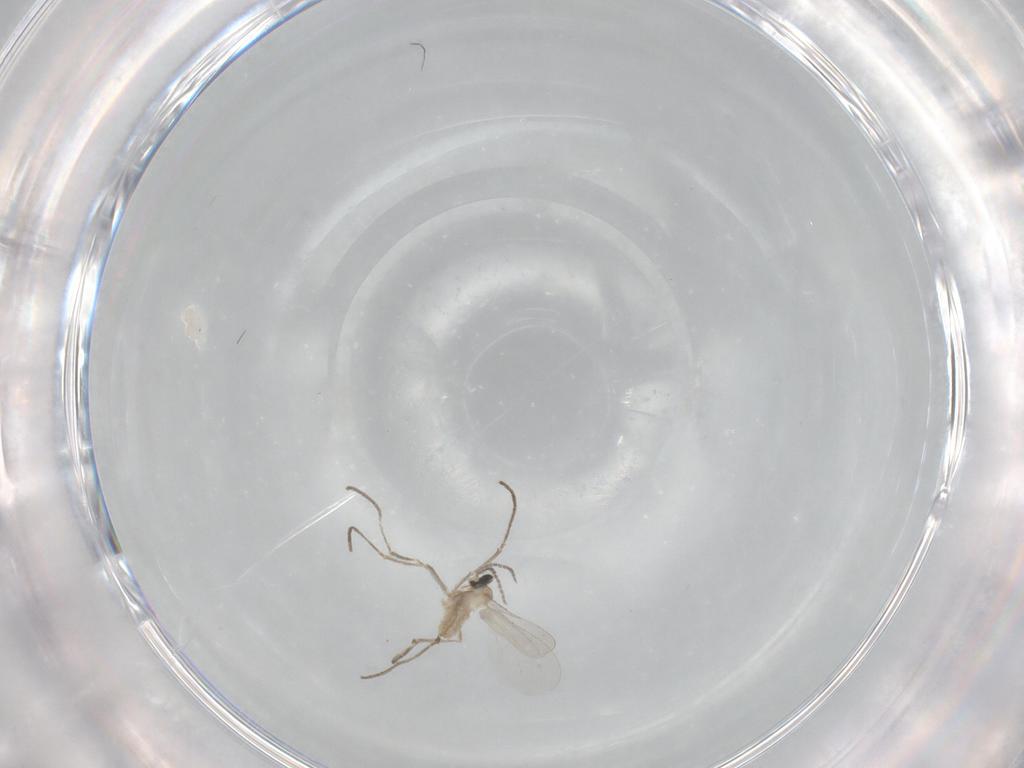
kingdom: Animalia
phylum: Arthropoda
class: Insecta
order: Diptera
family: Cecidomyiidae
